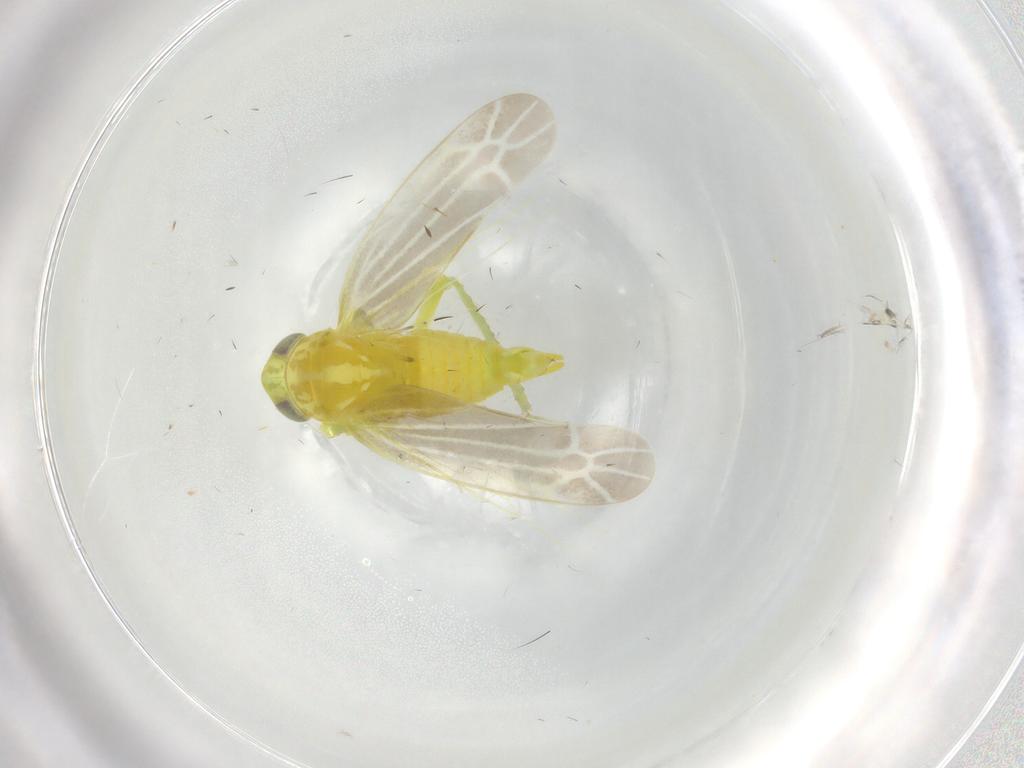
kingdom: Animalia
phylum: Arthropoda
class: Insecta
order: Hemiptera
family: Cicadellidae
